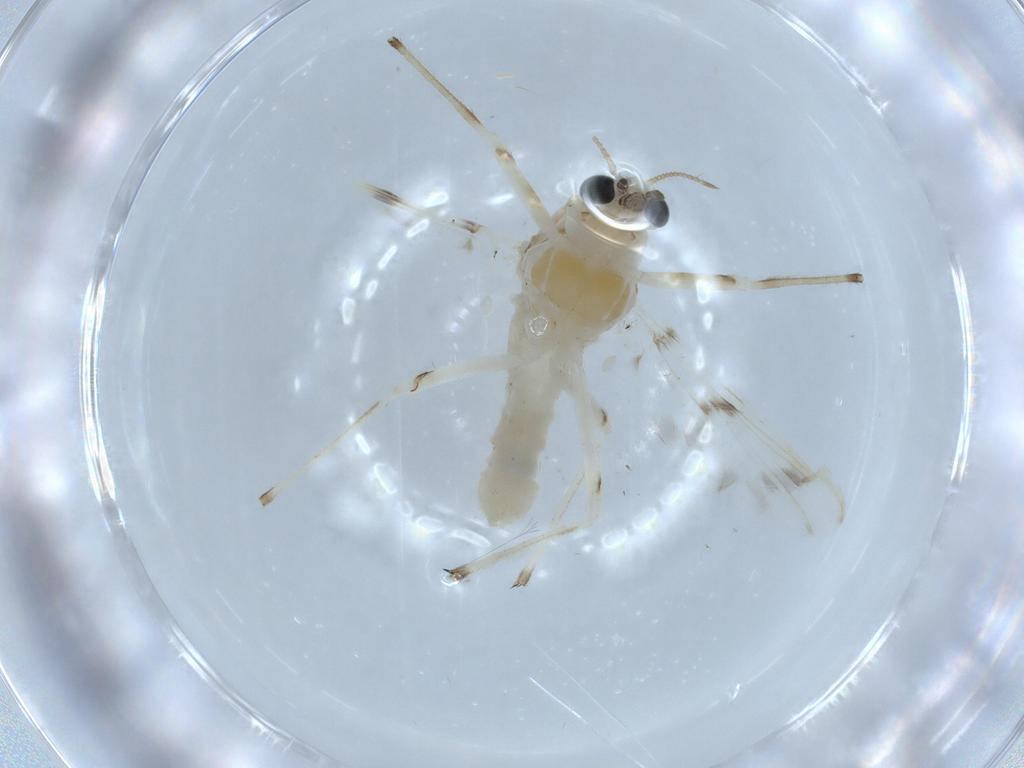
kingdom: Animalia
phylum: Arthropoda
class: Insecta
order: Diptera
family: Chironomidae
